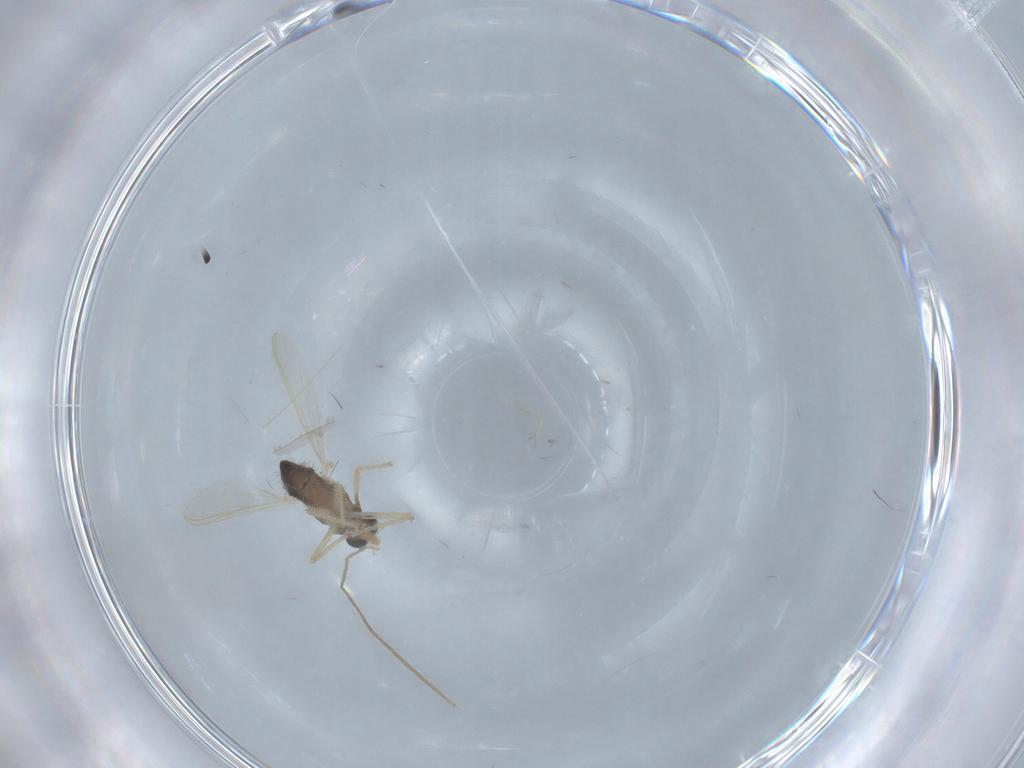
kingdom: Animalia
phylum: Arthropoda
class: Insecta
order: Diptera
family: Chironomidae
